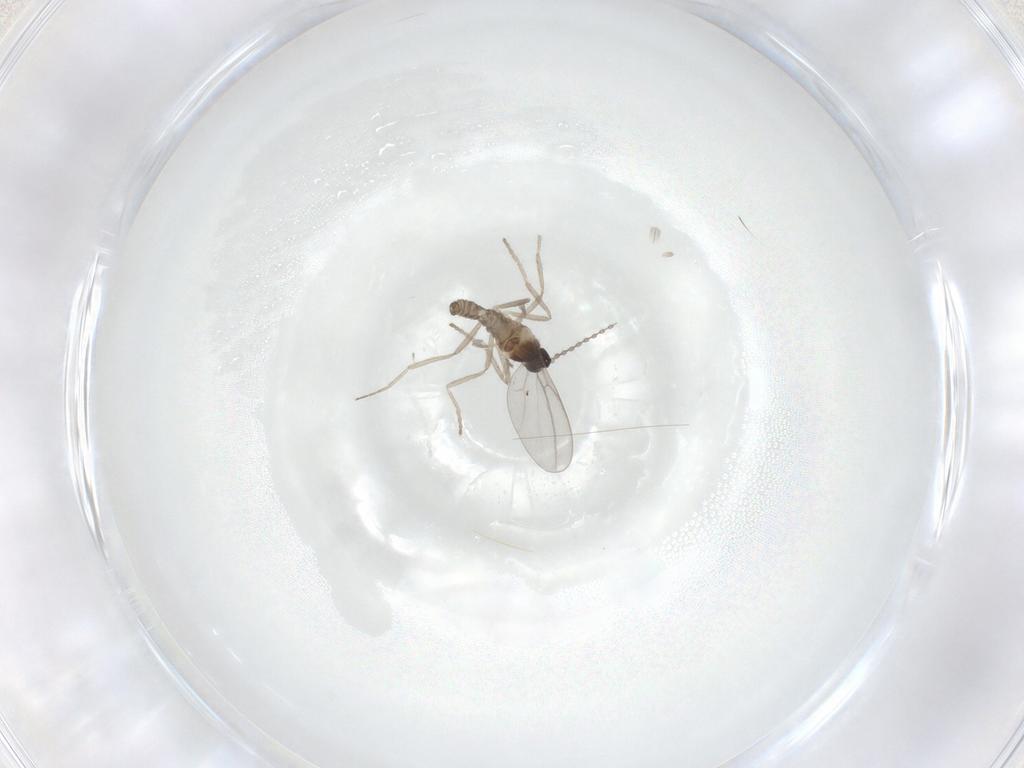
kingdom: Animalia
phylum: Arthropoda
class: Insecta
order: Diptera
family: Cecidomyiidae
